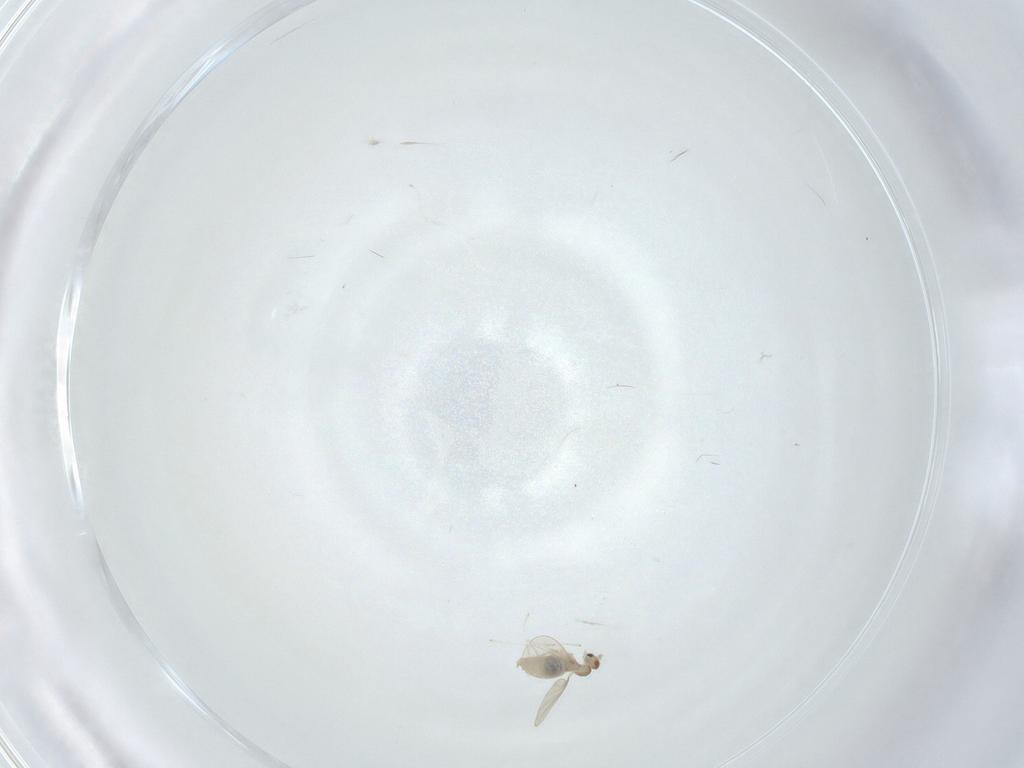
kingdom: Animalia
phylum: Arthropoda
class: Insecta
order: Diptera
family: Cecidomyiidae
